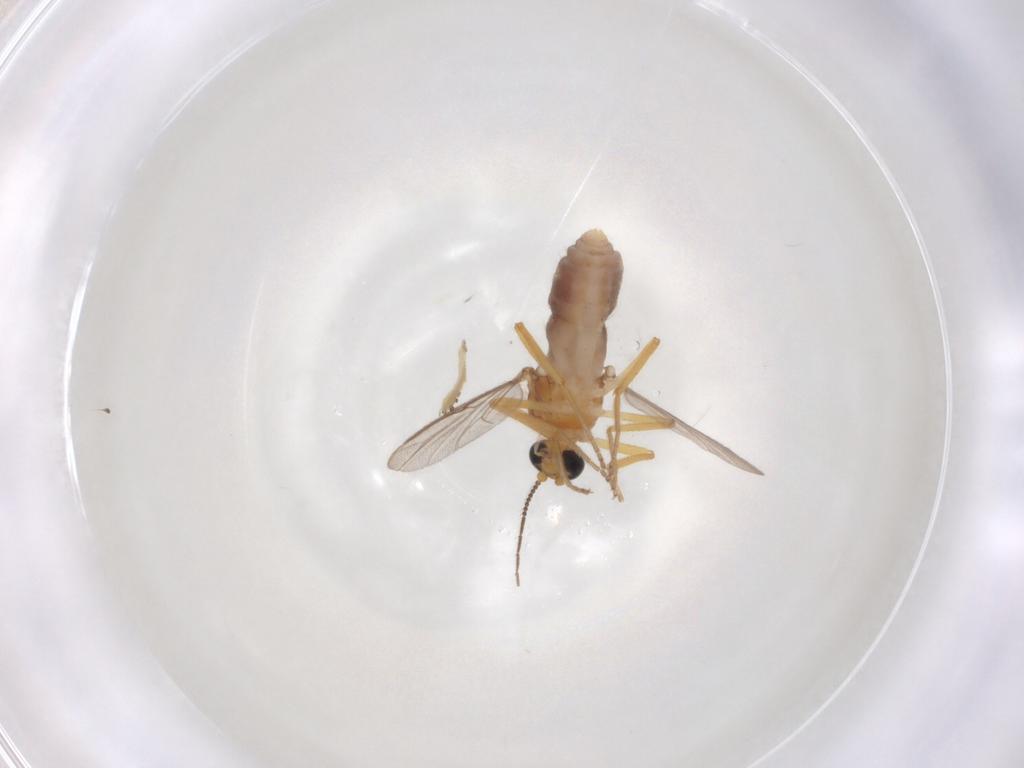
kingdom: Animalia
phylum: Arthropoda
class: Insecta
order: Diptera
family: Ceratopogonidae
